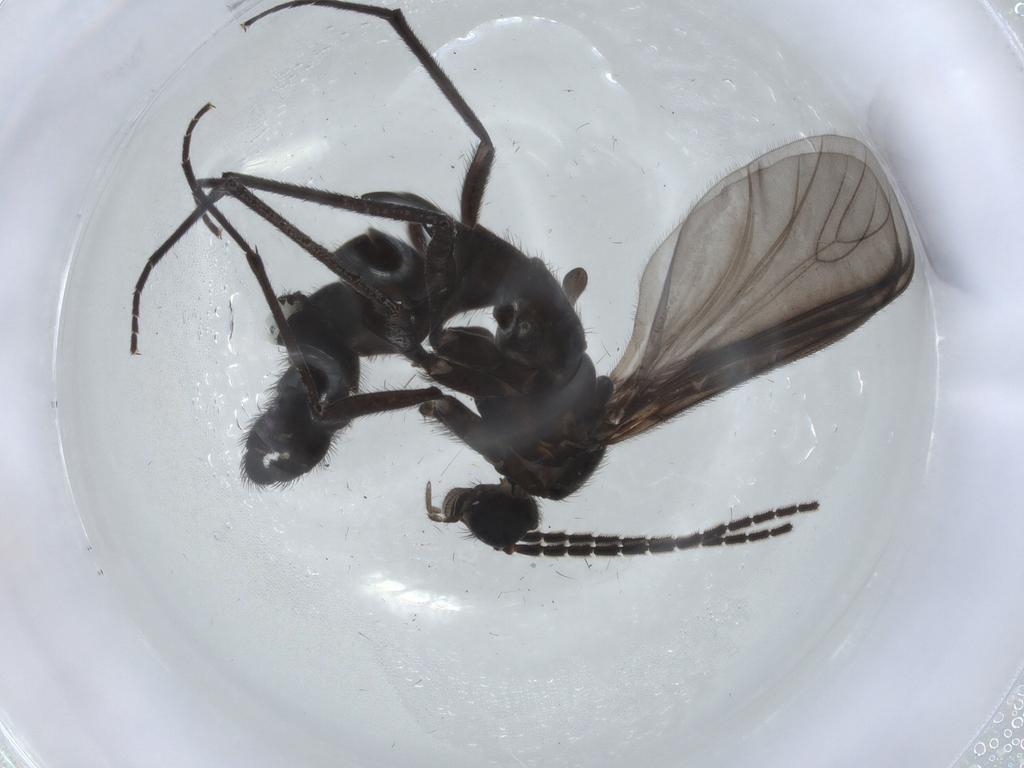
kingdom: Animalia
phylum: Arthropoda
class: Insecta
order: Diptera
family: Sciaridae
